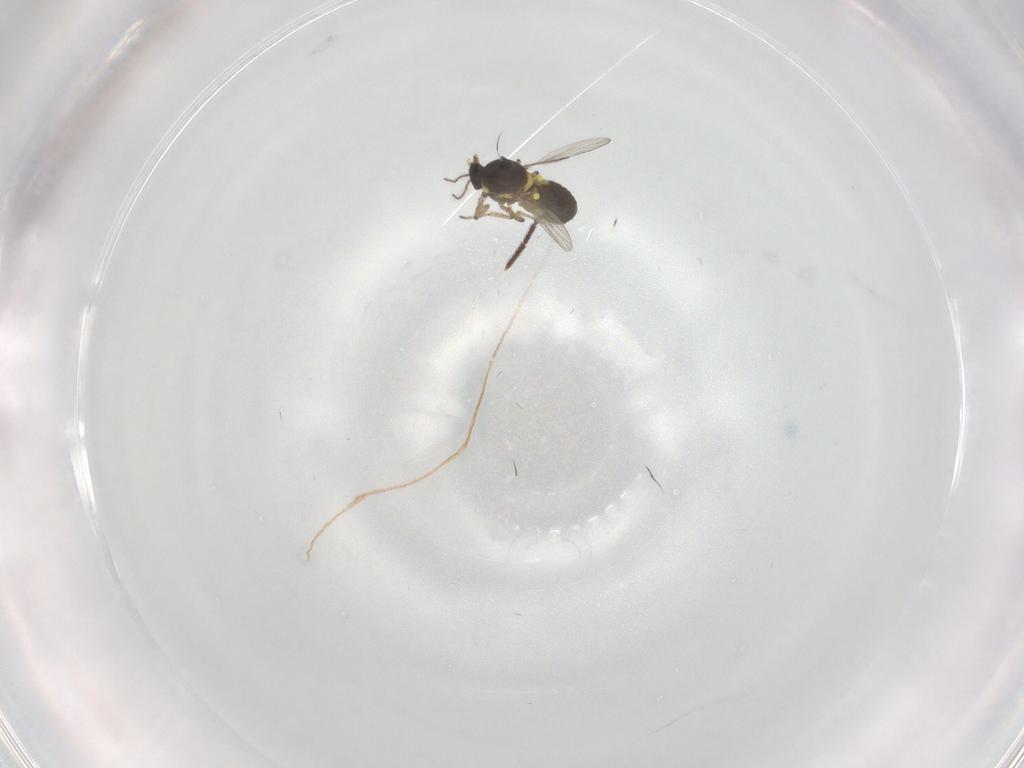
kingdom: Animalia
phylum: Arthropoda
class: Insecta
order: Diptera
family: Ceratopogonidae
